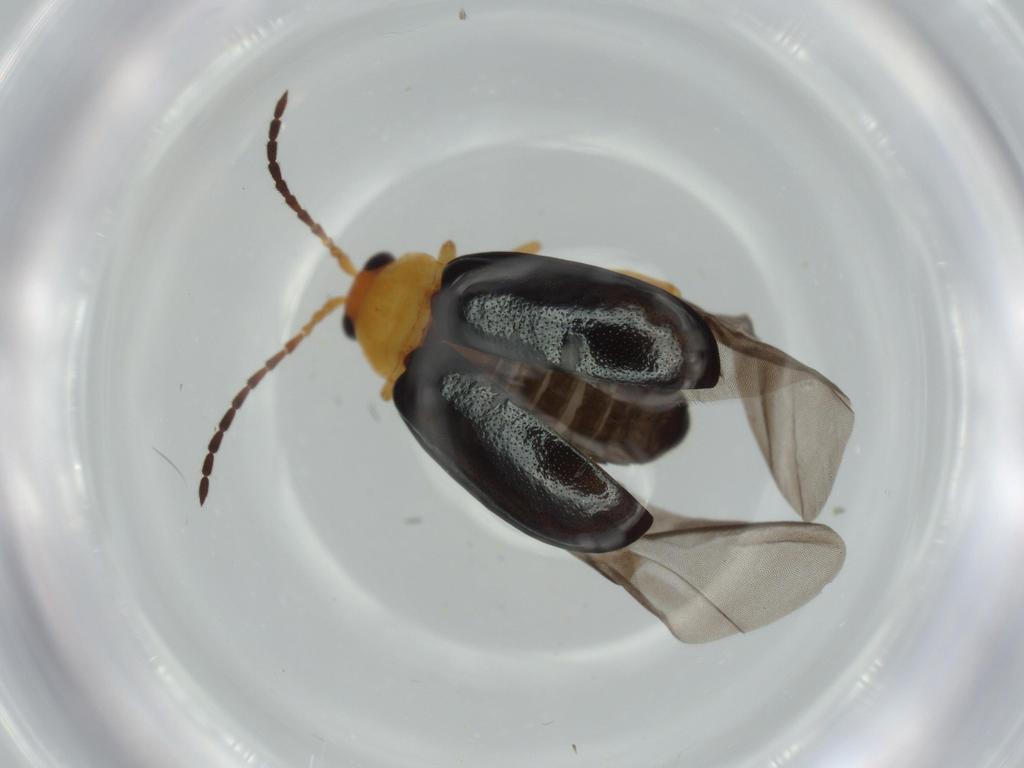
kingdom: Animalia
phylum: Arthropoda
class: Insecta
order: Coleoptera
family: Chrysomelidae
